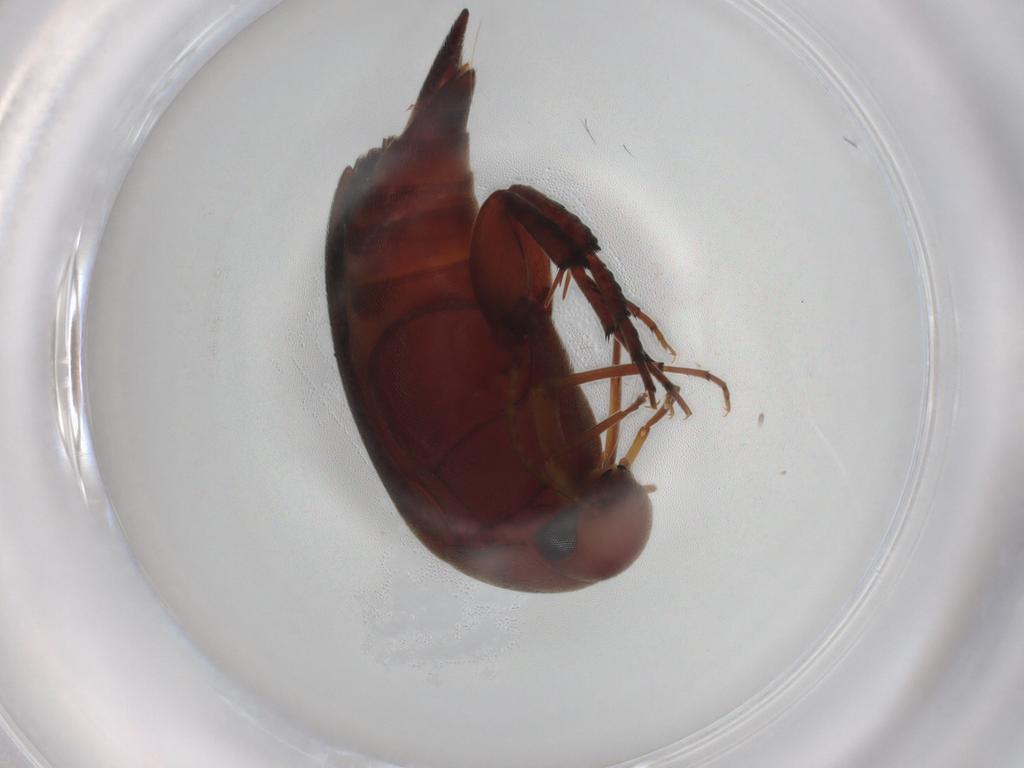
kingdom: Animalia
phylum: Arthropoda
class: Insecta
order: Coleoptera
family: Mordellidae
